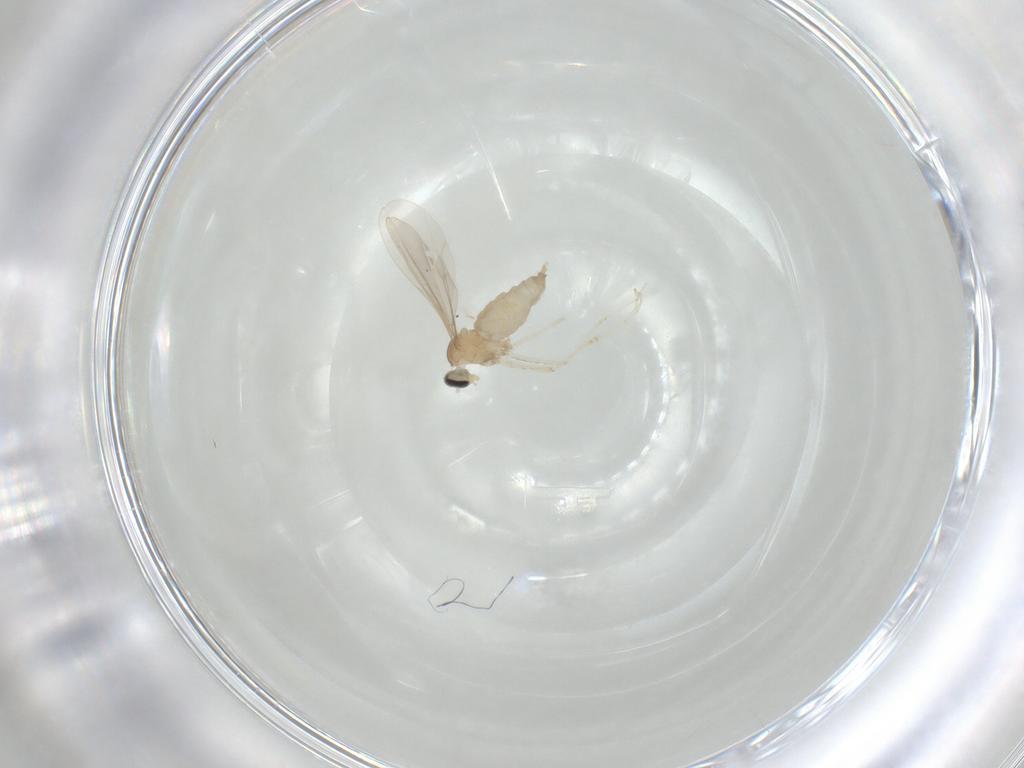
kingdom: Animalia
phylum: Arthropoda
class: Insecta
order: Diptera
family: Cecidomyiidae
